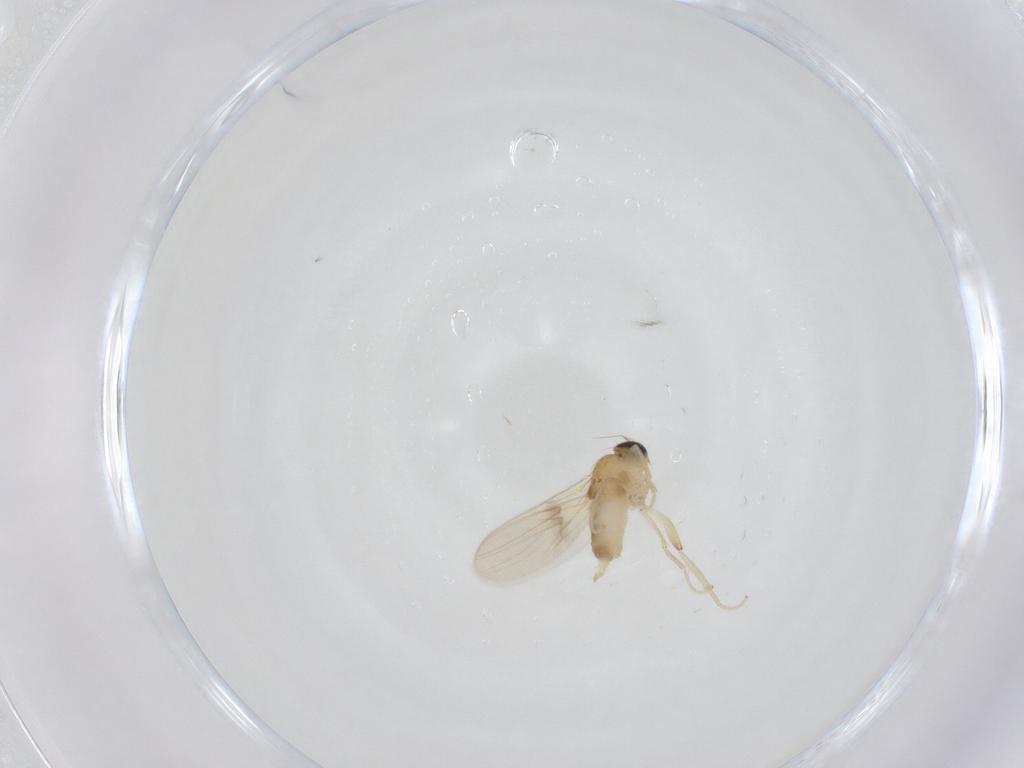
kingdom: Animalia
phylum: Arthropoda
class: Insecta
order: Diptera
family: Hybotidae
